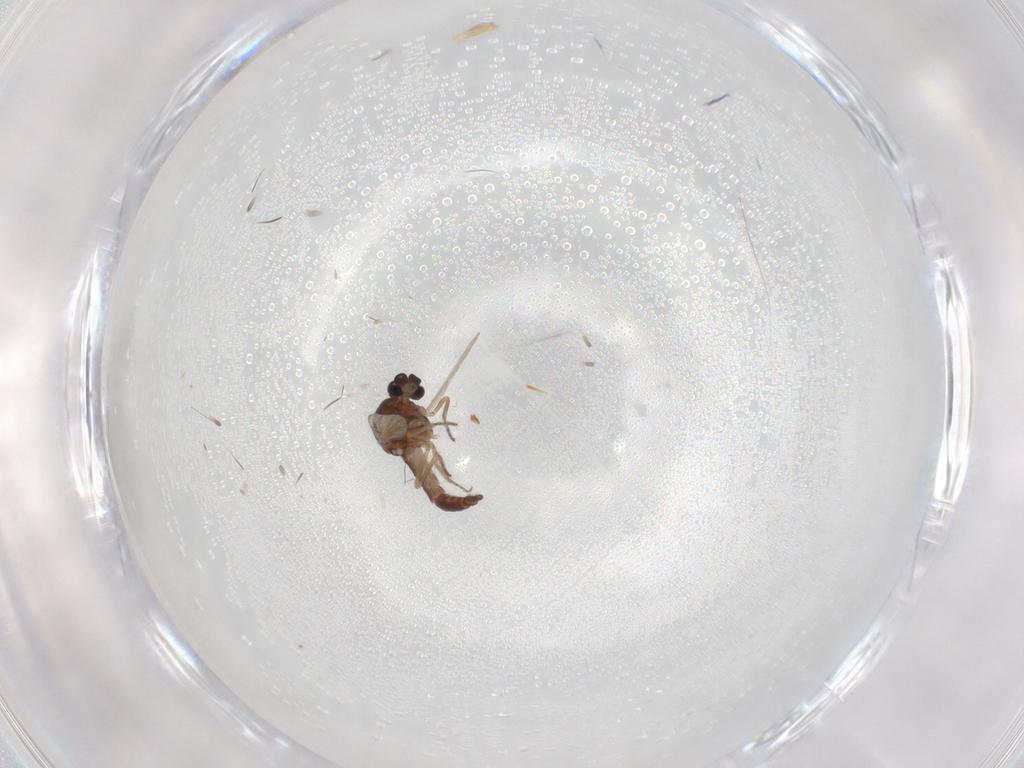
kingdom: Animalia
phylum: Arthropoda
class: Insecta
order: Diptera
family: Ceratopogonidae
